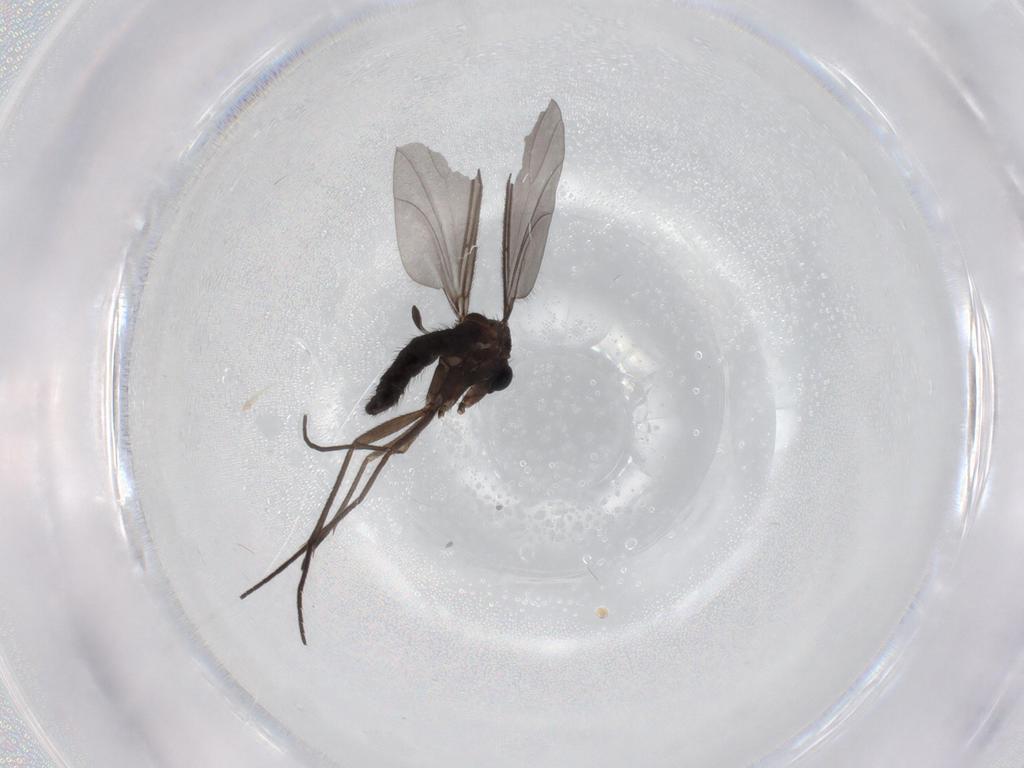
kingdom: Animalia
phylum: Arthropoda
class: Insecta
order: Diptera
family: Sciaridae
